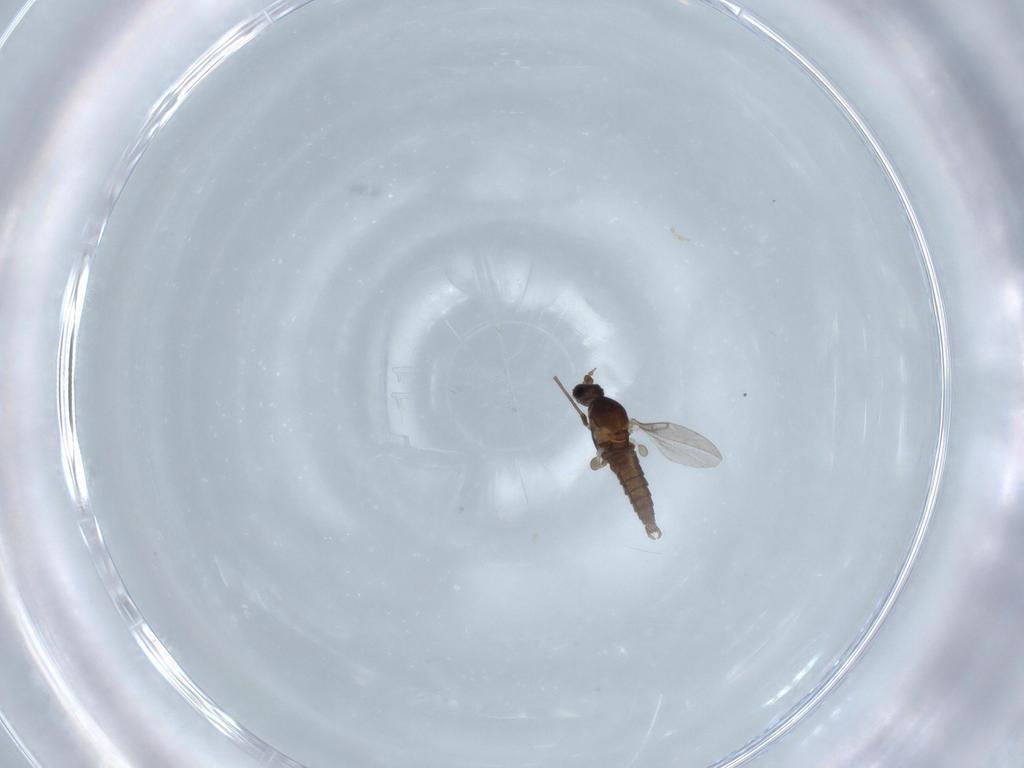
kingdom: Animalia
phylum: Arthropoda
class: Insecta
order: Diptera
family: Cecidomyiidae
